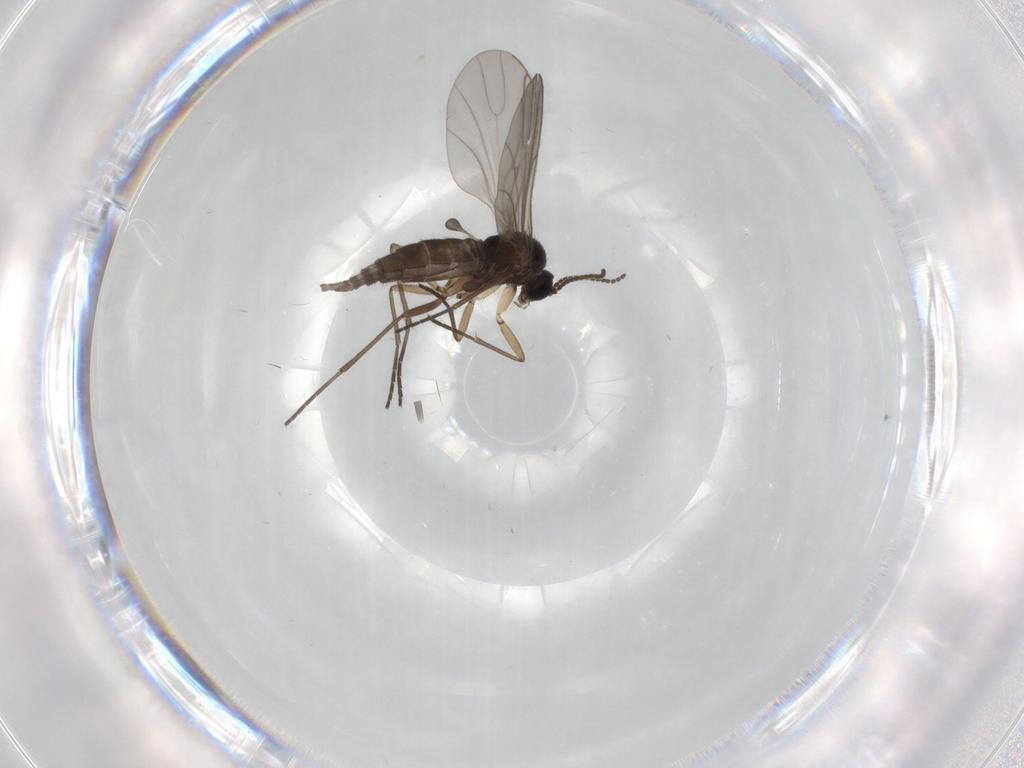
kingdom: Animalia
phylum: Arthropoda
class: Insecta
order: Diptera
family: Sciaridae
